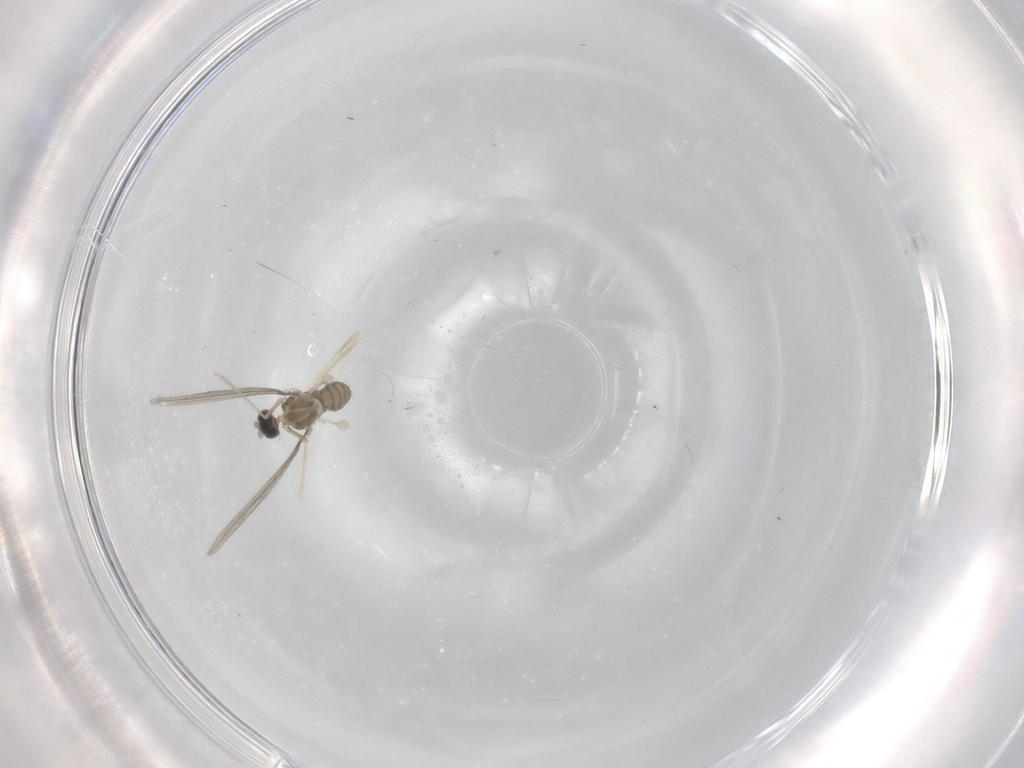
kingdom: Animalia
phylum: Arthropoda
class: Insecta
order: Diptera
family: Cecidomyiidae
